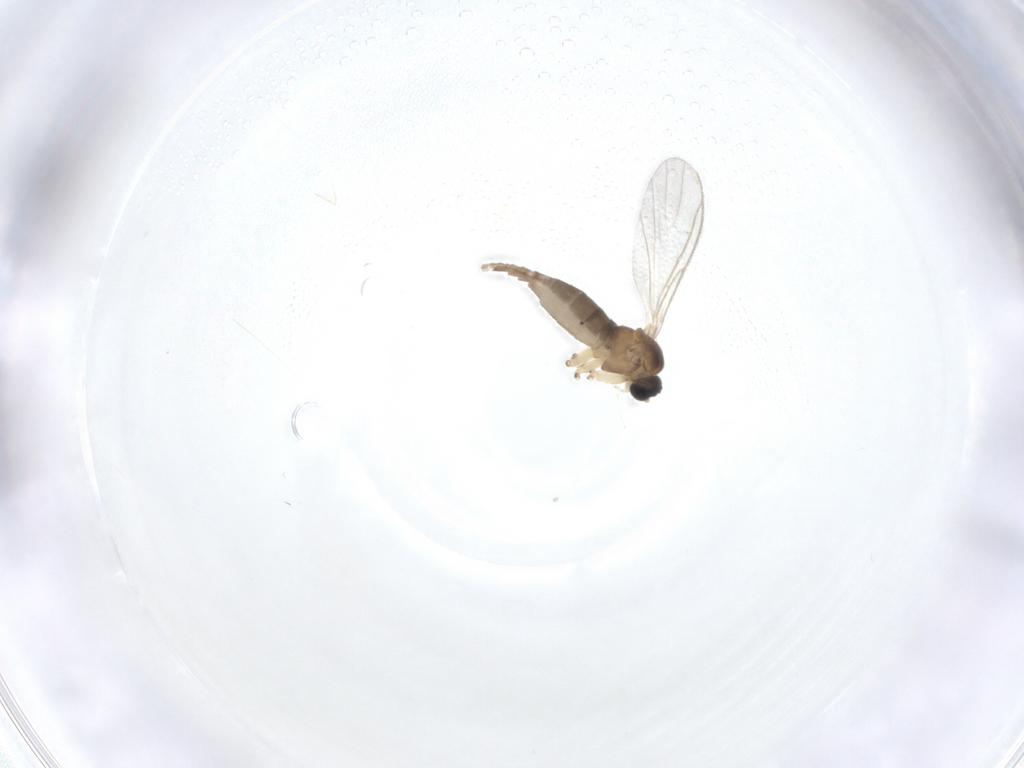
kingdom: Animalia
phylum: Arthropoda
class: Insecta
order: Diptera
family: Sciaridae
